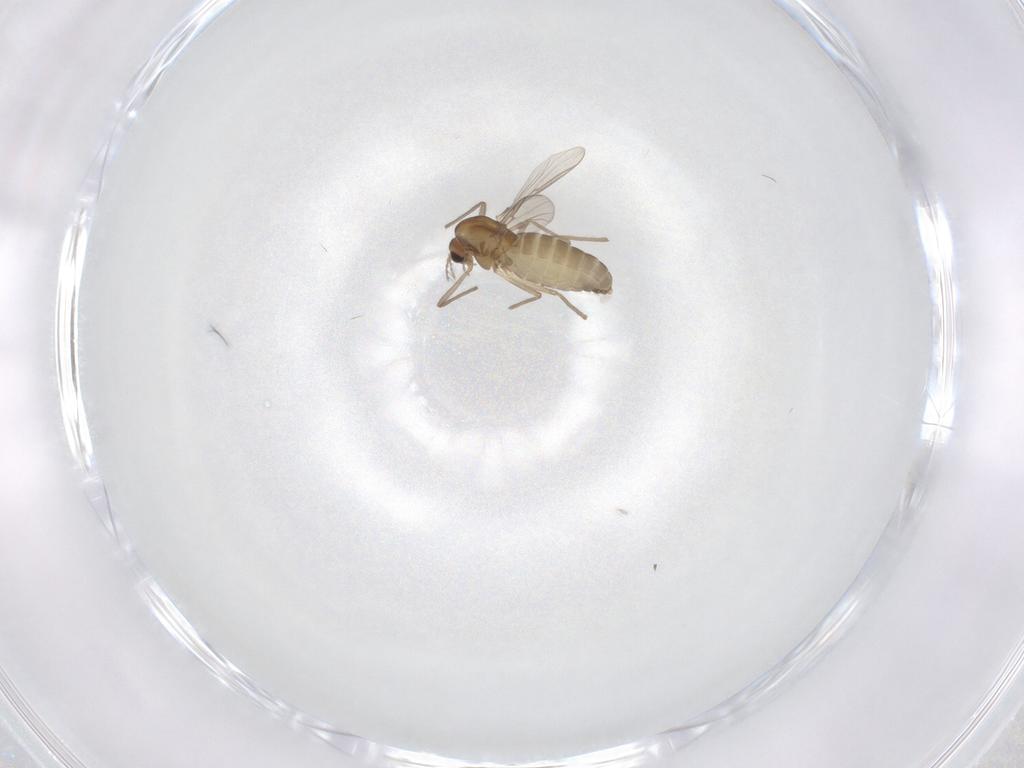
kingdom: Animalia
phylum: Arthropoda
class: Insecta
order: Diptera
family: Chironomidae
